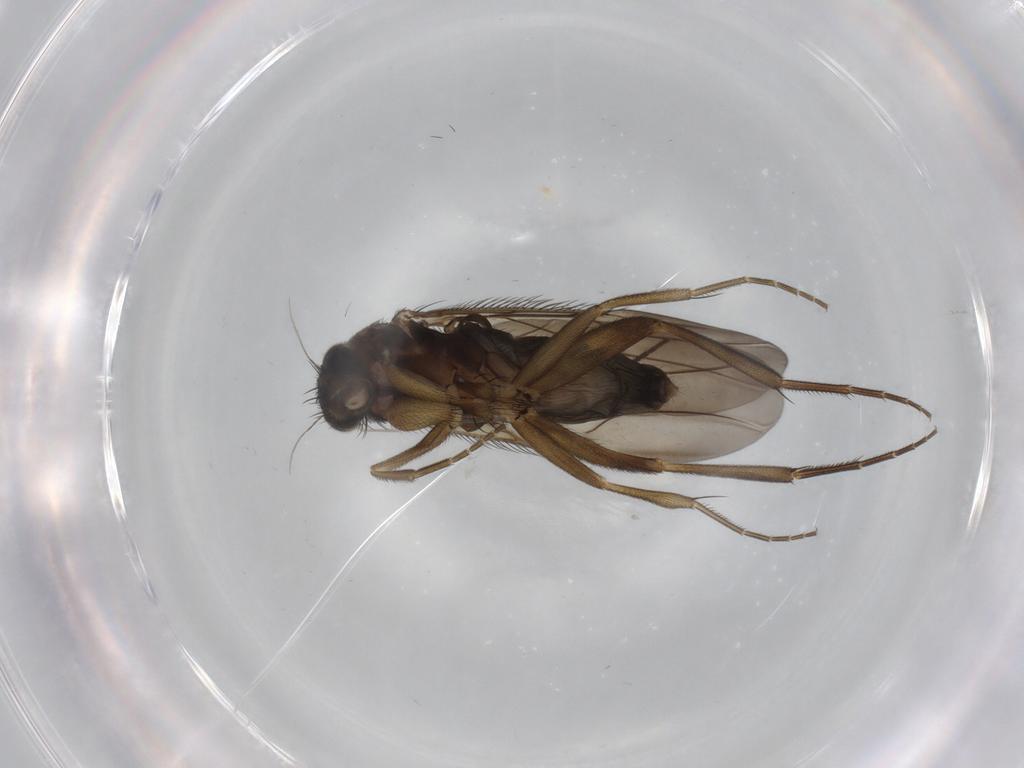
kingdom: Animalia
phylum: Arthropoda
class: Insecta
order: Diptera
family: Phoridae
